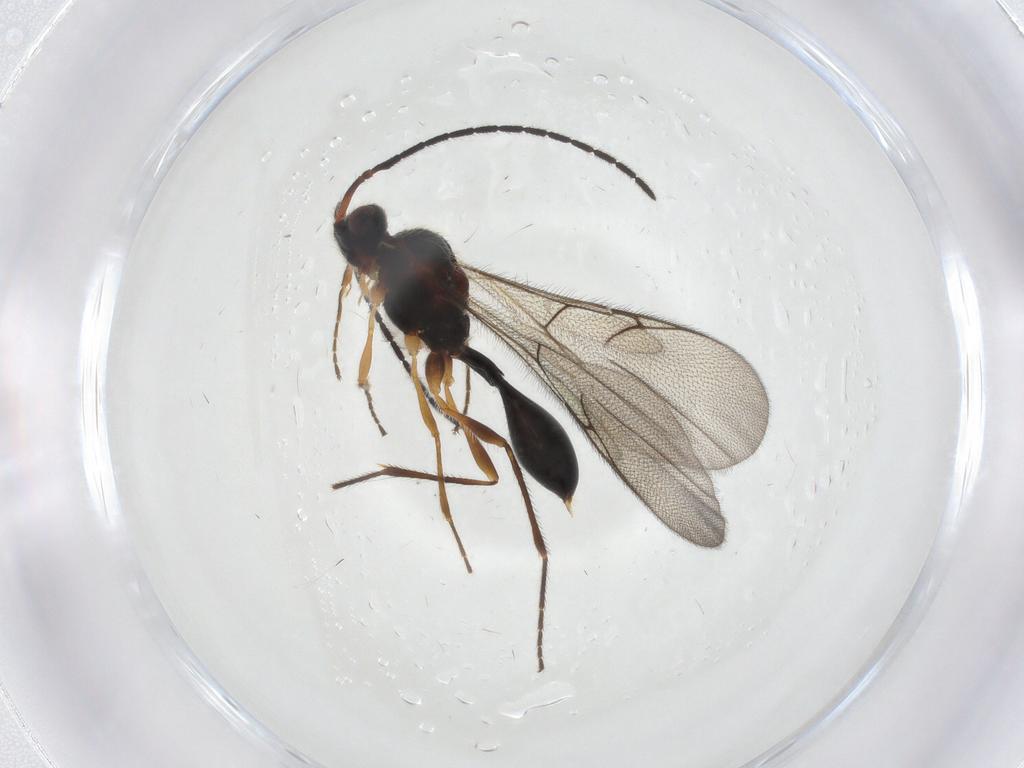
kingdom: Animalia
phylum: Arthropoda
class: Insecta
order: Hymenoptera
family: Diapriidae
